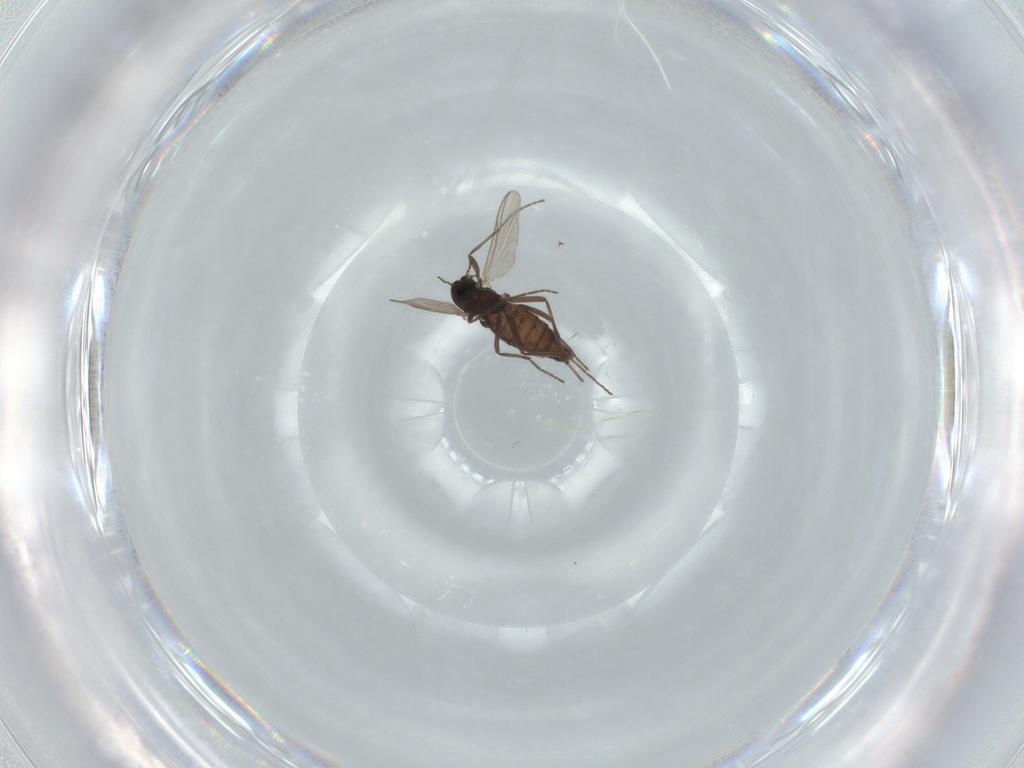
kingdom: Animalia
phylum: Arthropoda
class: Insecta
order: Diptera
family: Chironomidae
